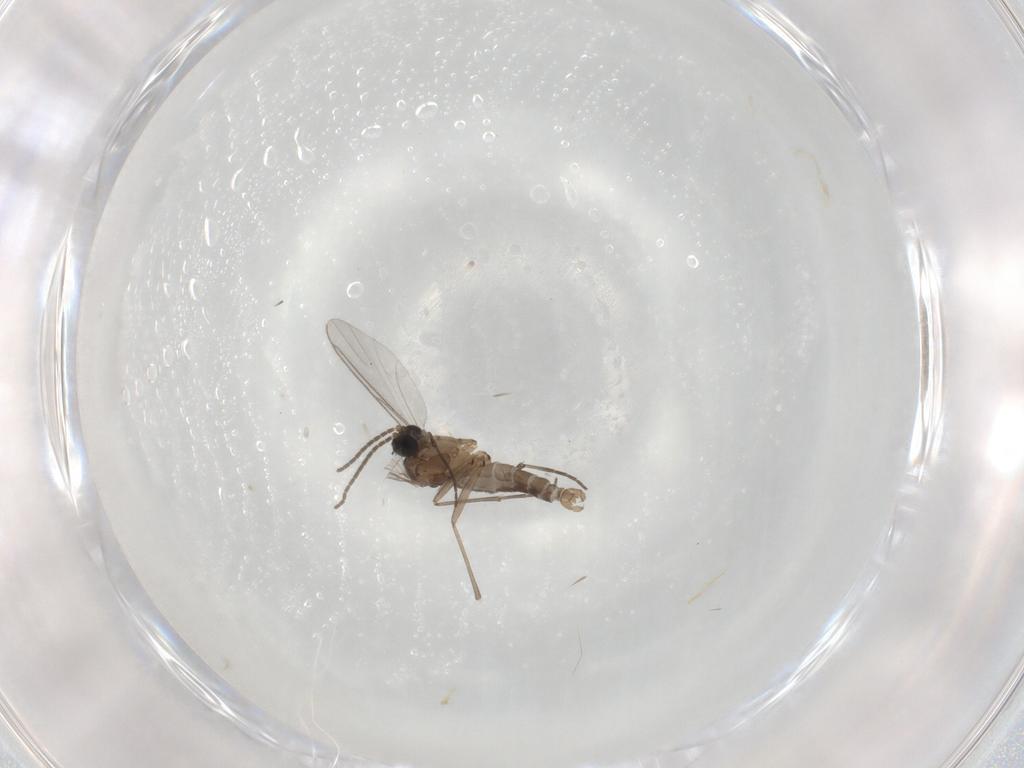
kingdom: Animalia
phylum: Arthropoda
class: Insecta
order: Diptera
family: Sciaridae
